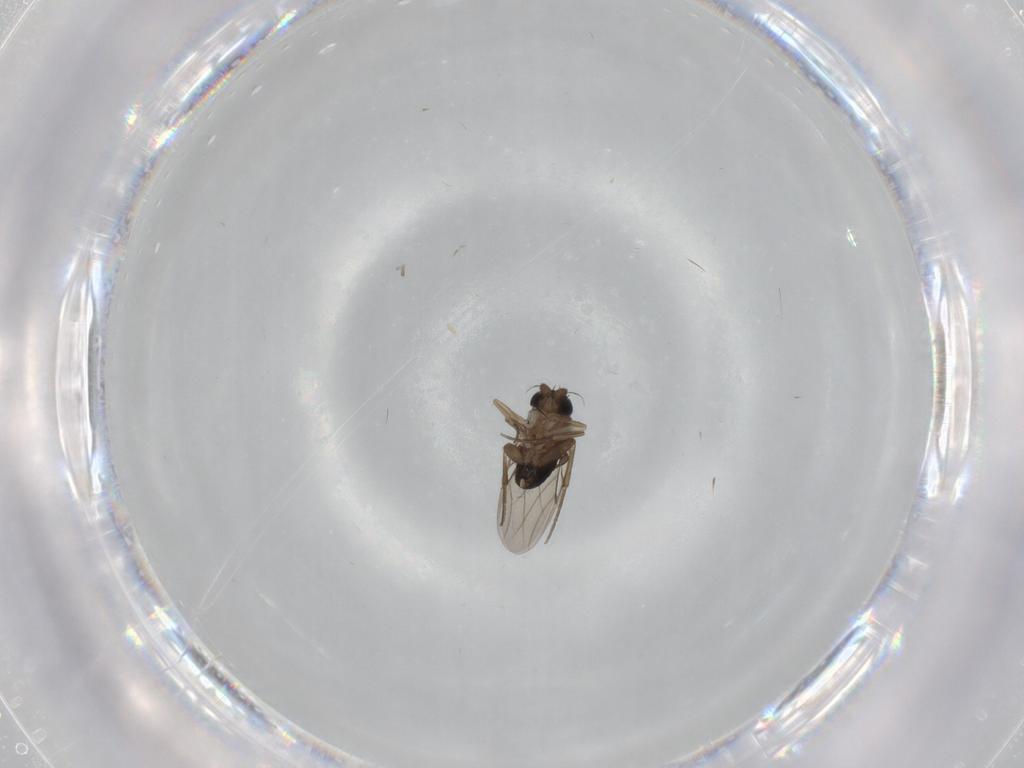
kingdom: Animalia
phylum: Arthropoda
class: Insecta
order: Diptera
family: Phoridae
